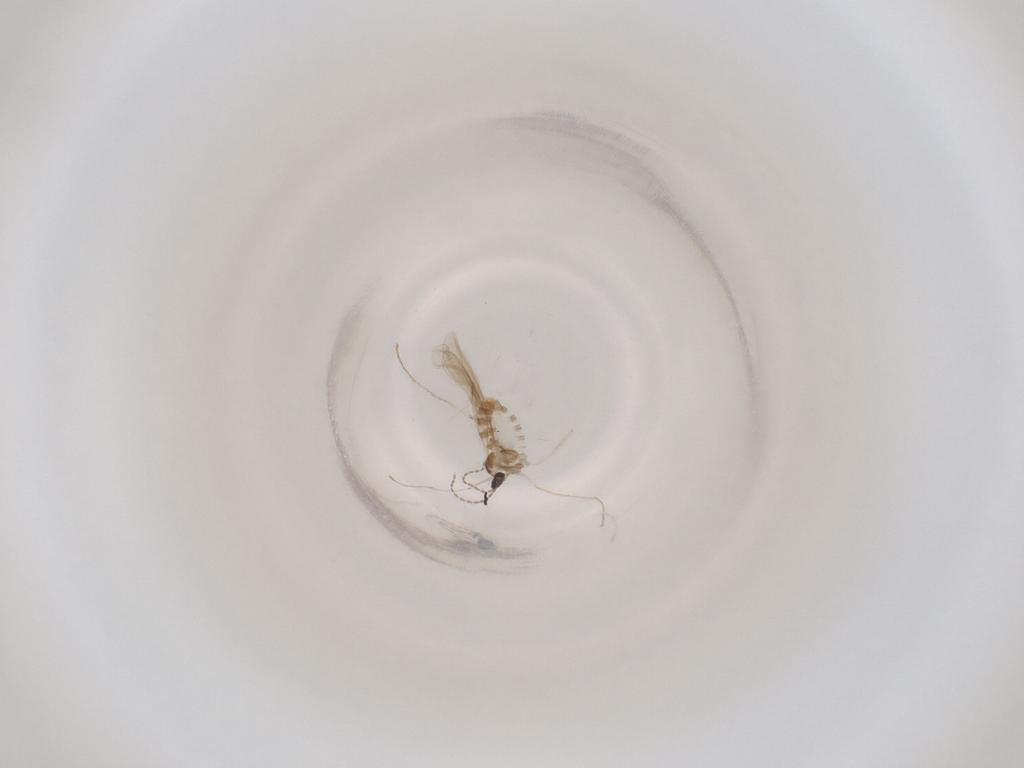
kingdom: Animalia
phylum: Arthropoda
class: Insecta
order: Diptera
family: Cecidomyiidae
